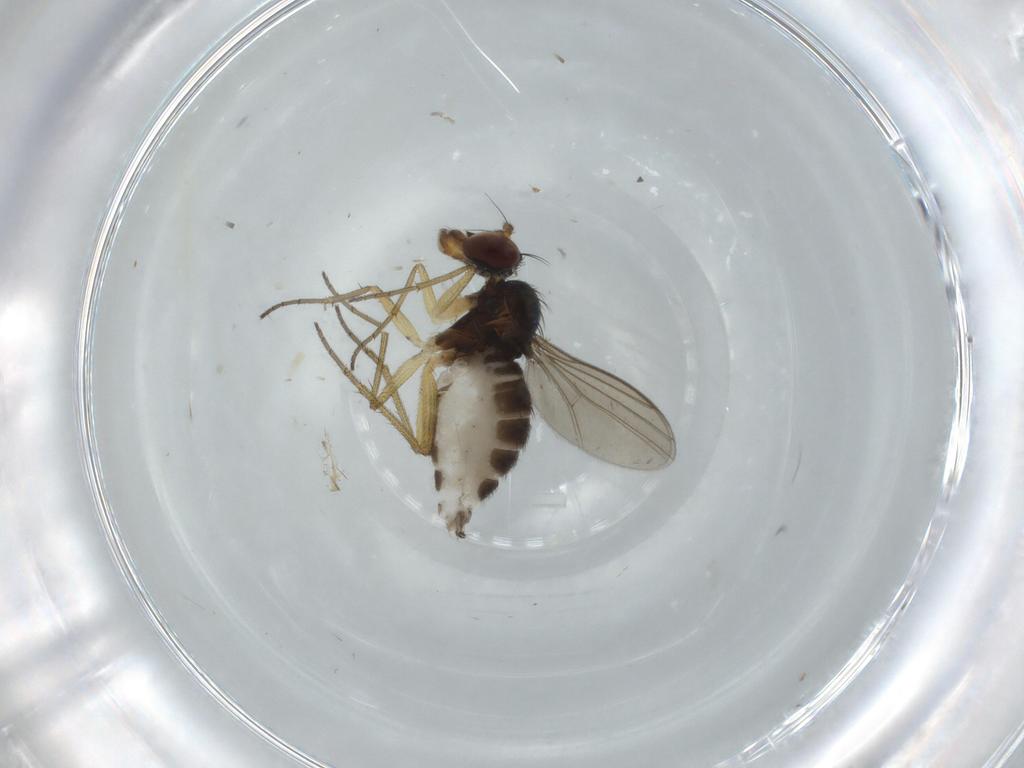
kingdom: Animalia
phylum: Arthropoda
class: Insecta
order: Diptera
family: Dolichopodidae
